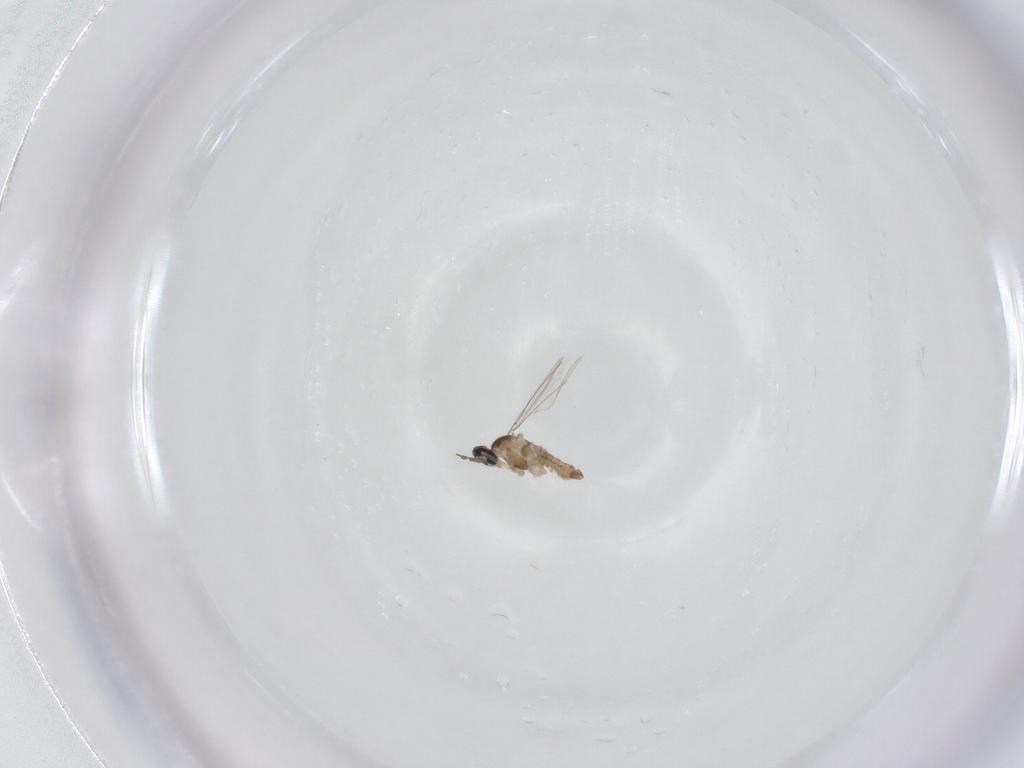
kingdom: Animalia
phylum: Arthropoda
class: Insecta
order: Diptera
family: Cecidomyiidae
